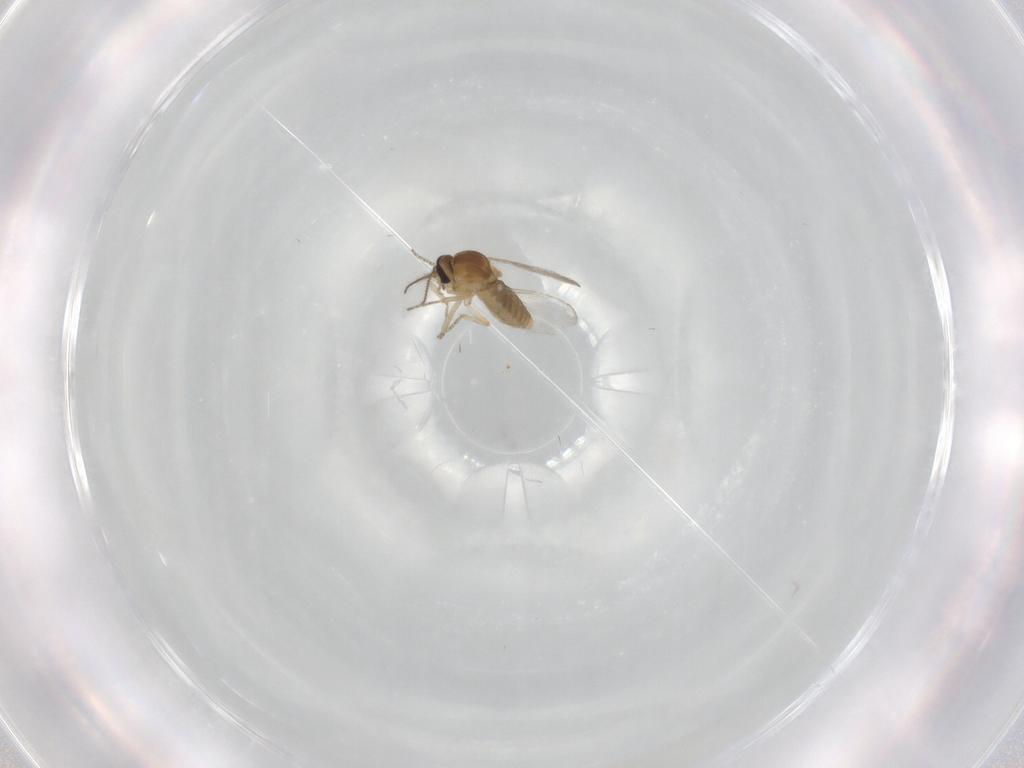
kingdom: Animalia
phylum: Arthropoda
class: Insecta
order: Diptera
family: Ceratopogonidae
